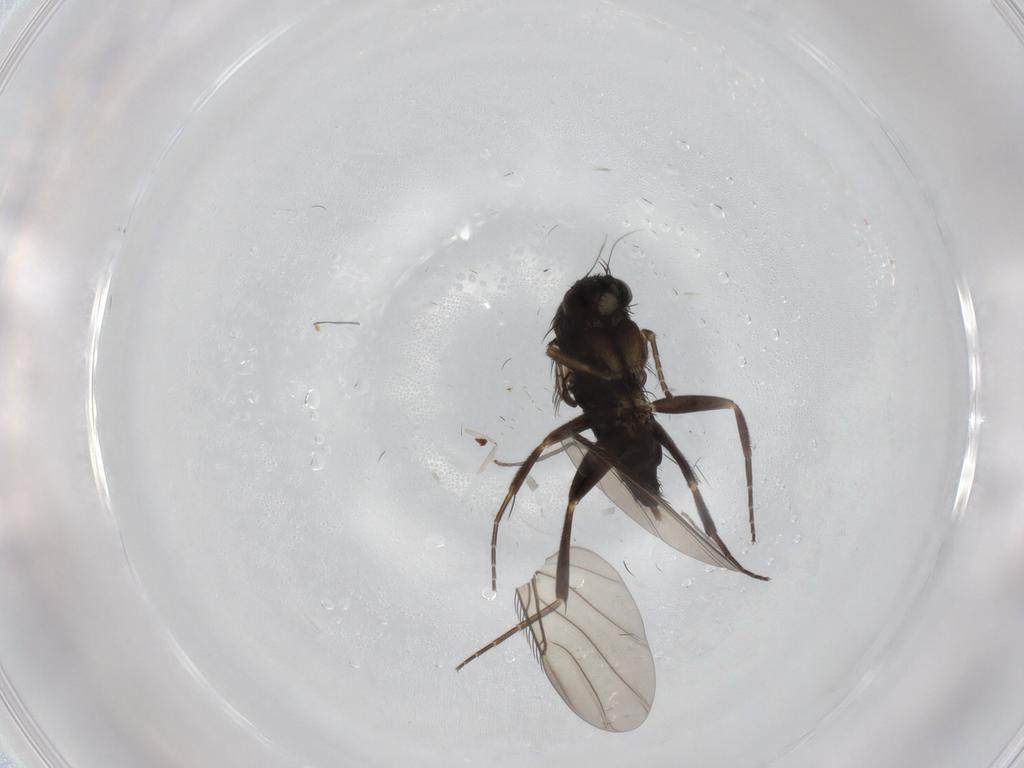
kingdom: Animalia
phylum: Arthropoda
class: Insecta
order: Diptera
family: Phoridae
